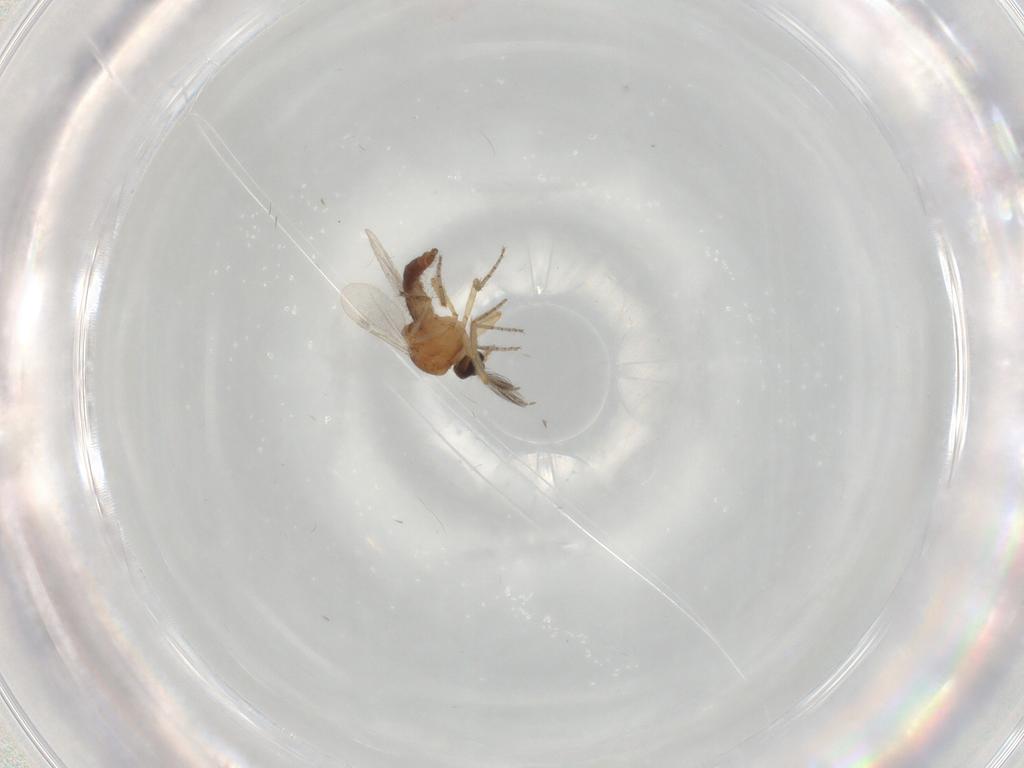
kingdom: Animalia
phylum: Arthropoda
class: Insecta
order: Diptera
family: Ceratopogonidae
